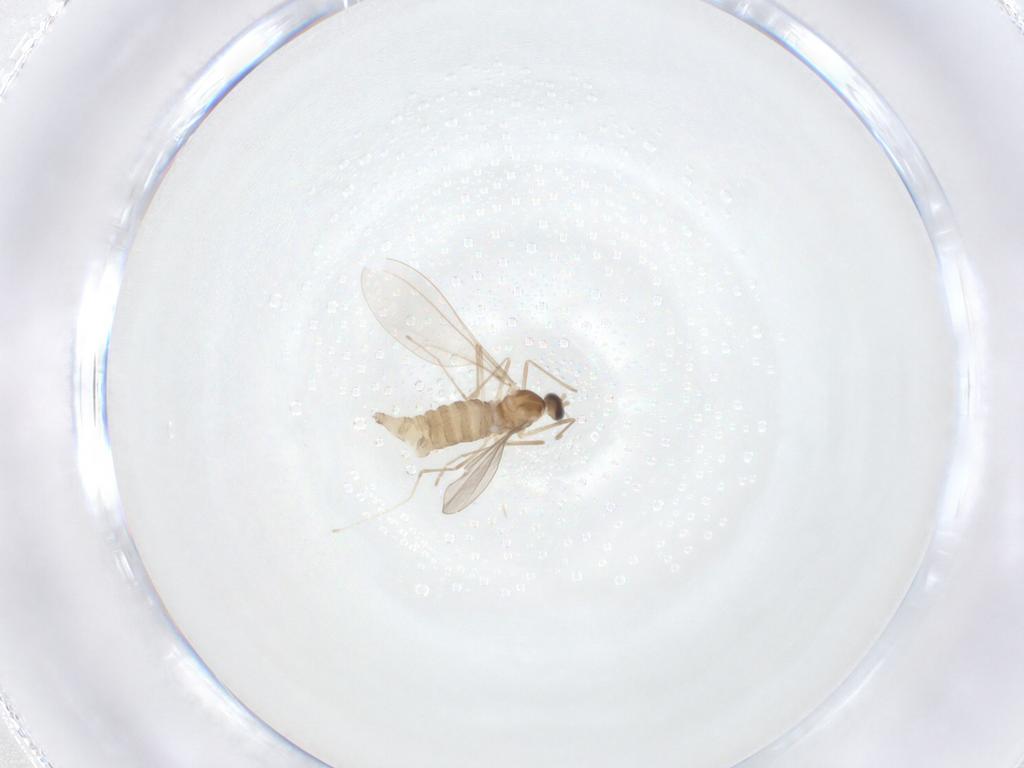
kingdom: Animalia
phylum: Arthropoda
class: Insecta
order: Diptera
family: Cecidomyiidae
